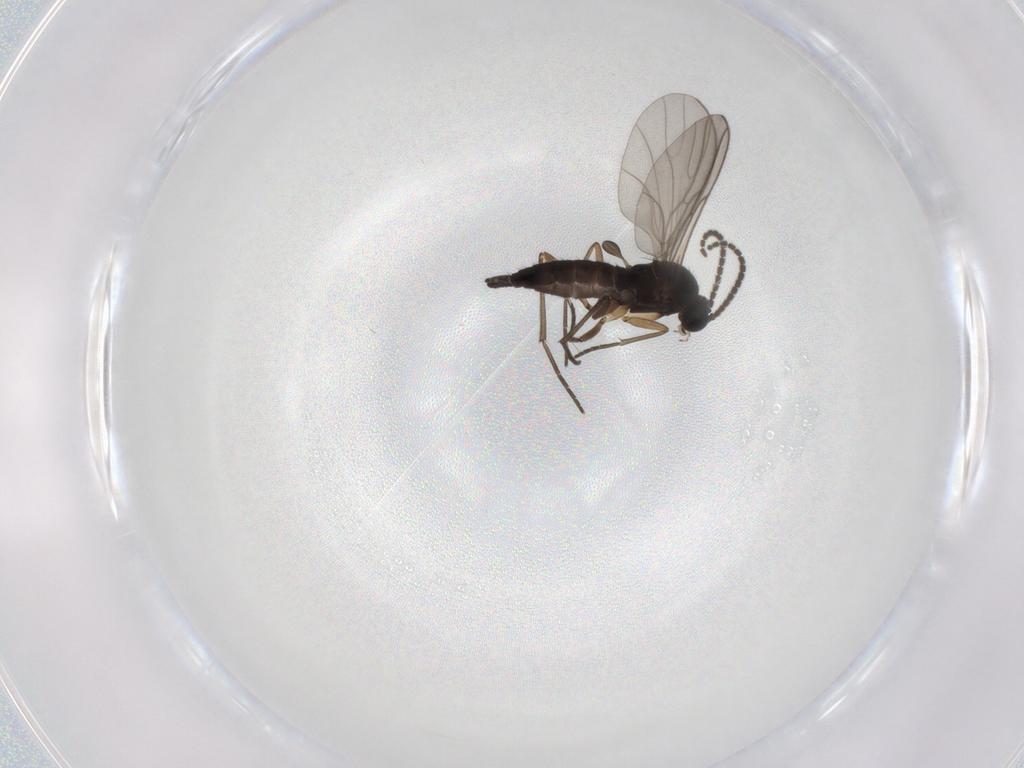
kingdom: Animalia
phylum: Arthropoda
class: Insecta
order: Diptera
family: Sciaridae
